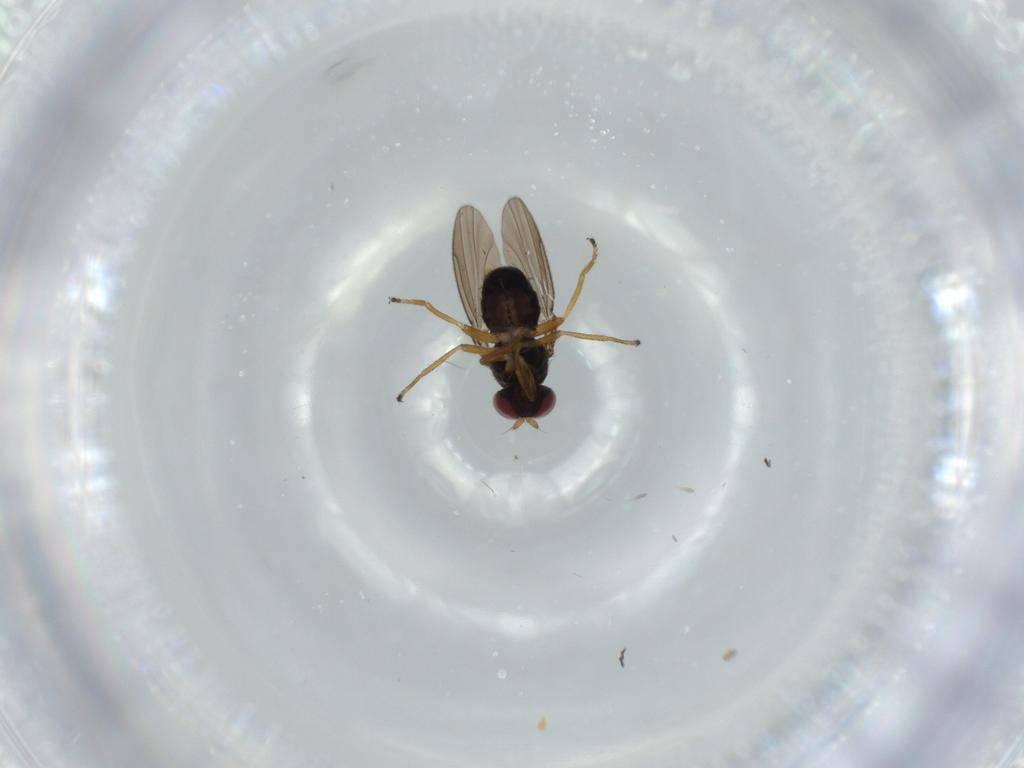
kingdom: Animalia
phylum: Arthropoda
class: Insecta
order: Diptera
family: Ephydridae
